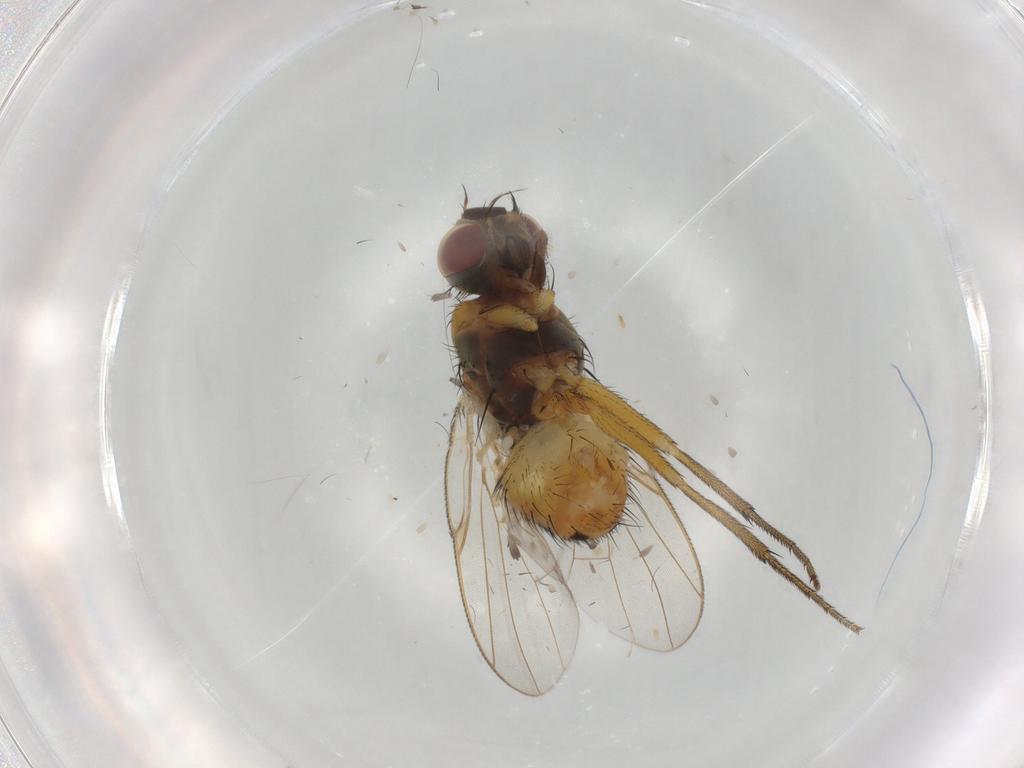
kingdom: Animalia
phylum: Arthropoda
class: Insecta
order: Diptera
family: Muscidae
